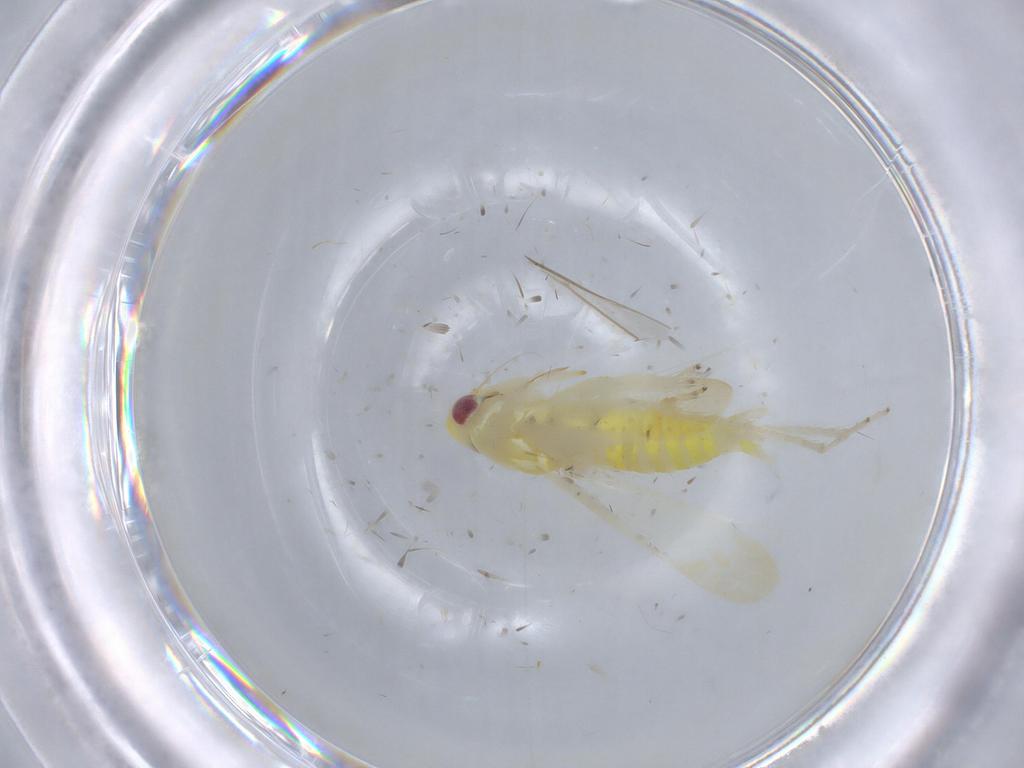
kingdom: Animalia
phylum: Arthropoda
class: Insecta
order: Hemiptera
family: Cicadellidae
